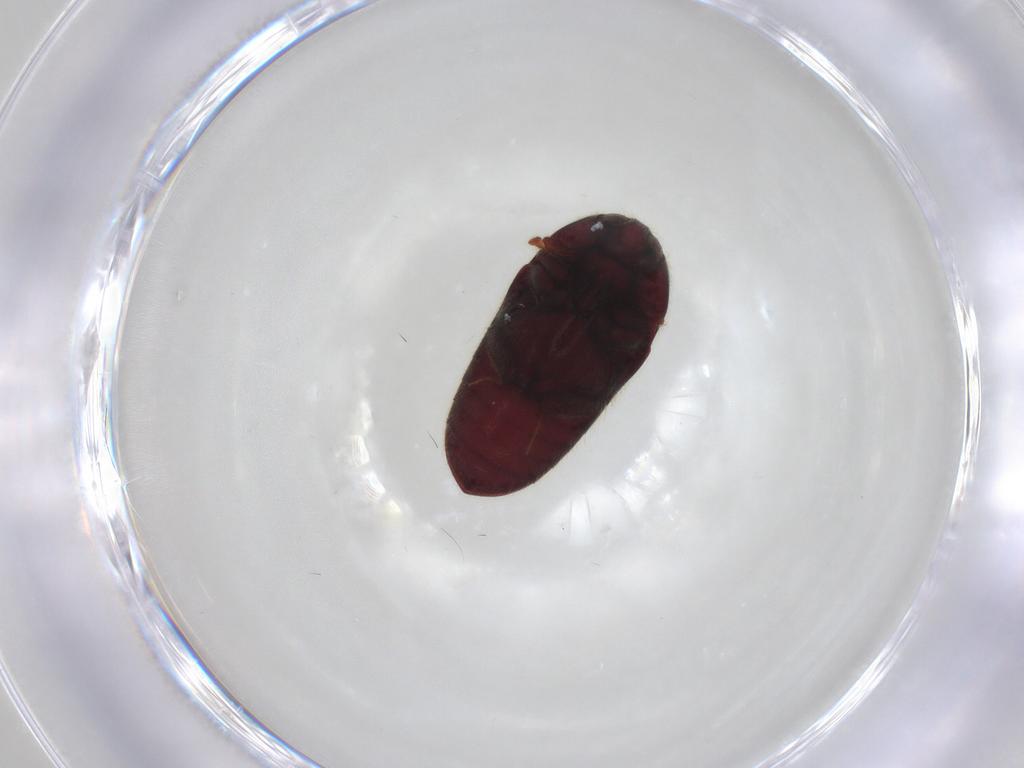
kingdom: Animalia
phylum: Arthropoda
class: Insecta
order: Coleoptera
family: Throscidae
